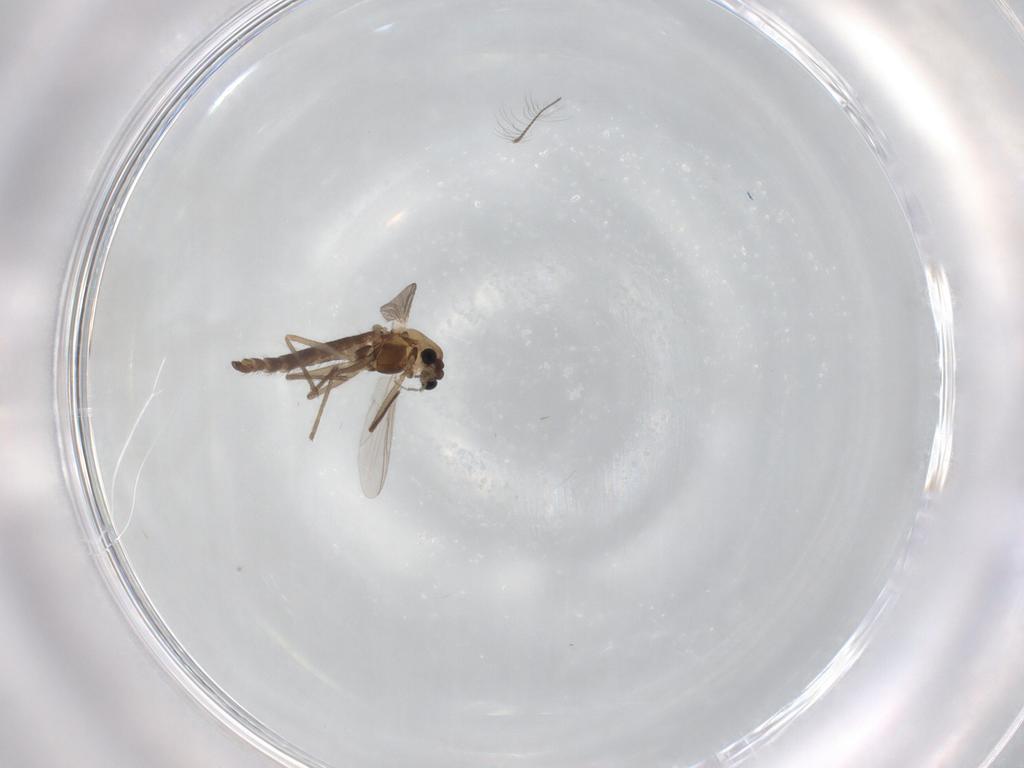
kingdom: Animalia
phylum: Arthropoda
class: Insecta
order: Diptera
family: Chironomidae
